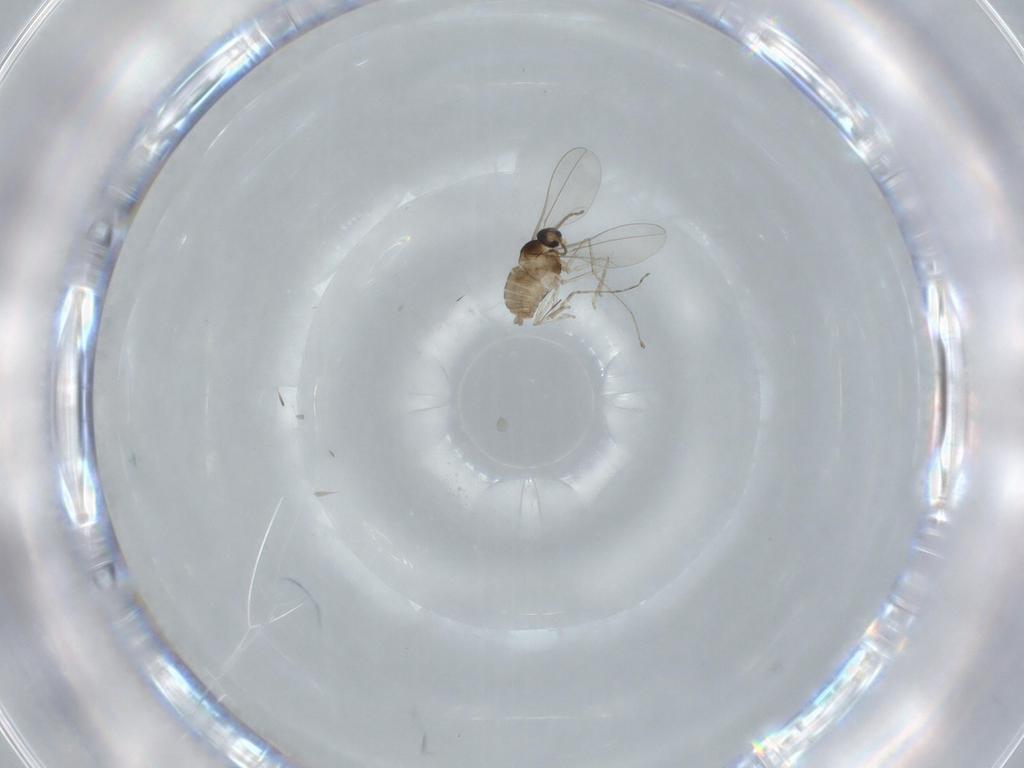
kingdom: Animalia
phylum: Arthropoda
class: Insecta
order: Diptera
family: Cecidomyiidae
